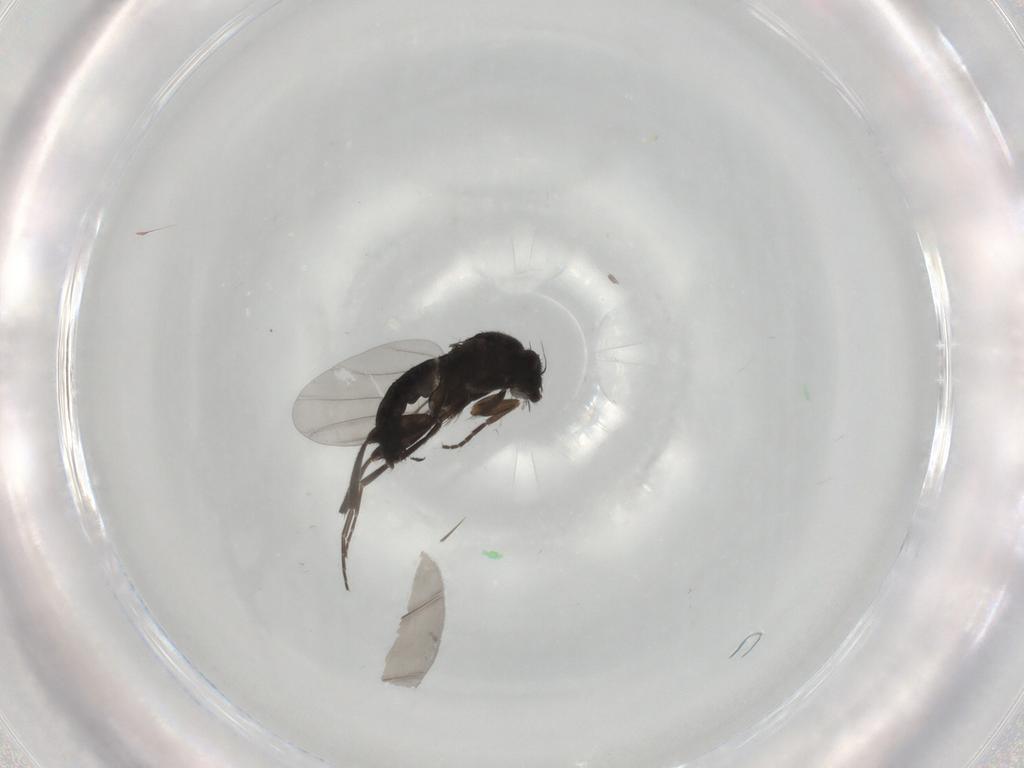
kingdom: Animalia
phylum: Arthropoda
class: Insecta
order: Diptera
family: Phoridae
